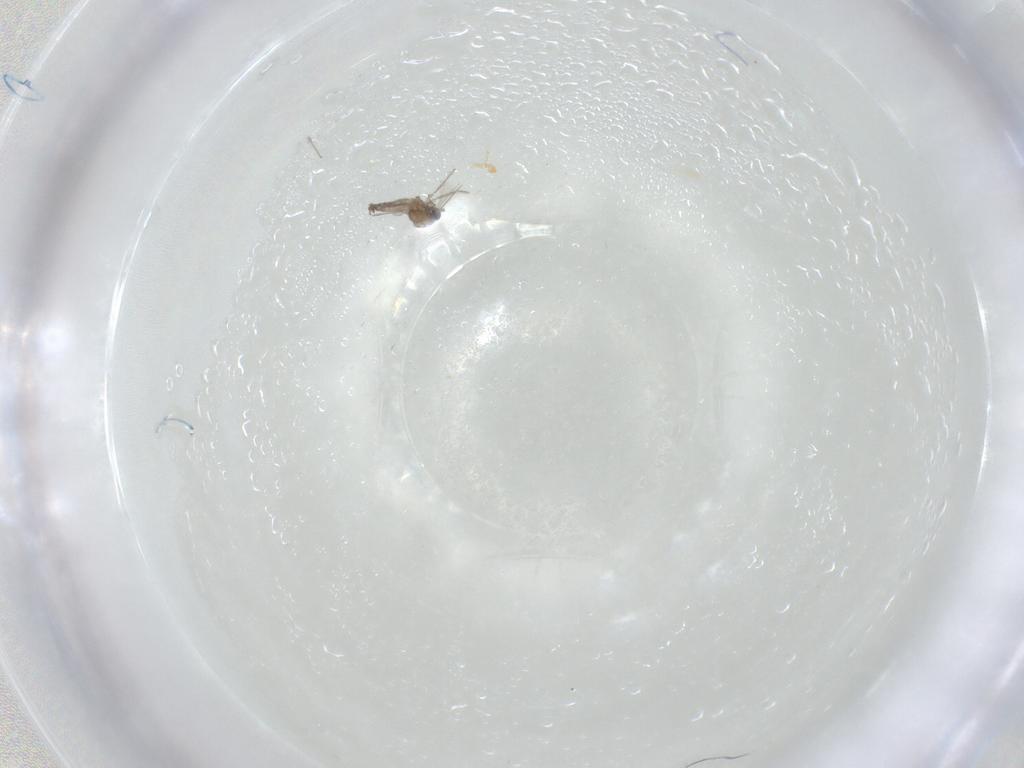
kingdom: Animalia
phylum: Arthropoda
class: Insecta
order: Diptera
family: Cecidomyiidae
